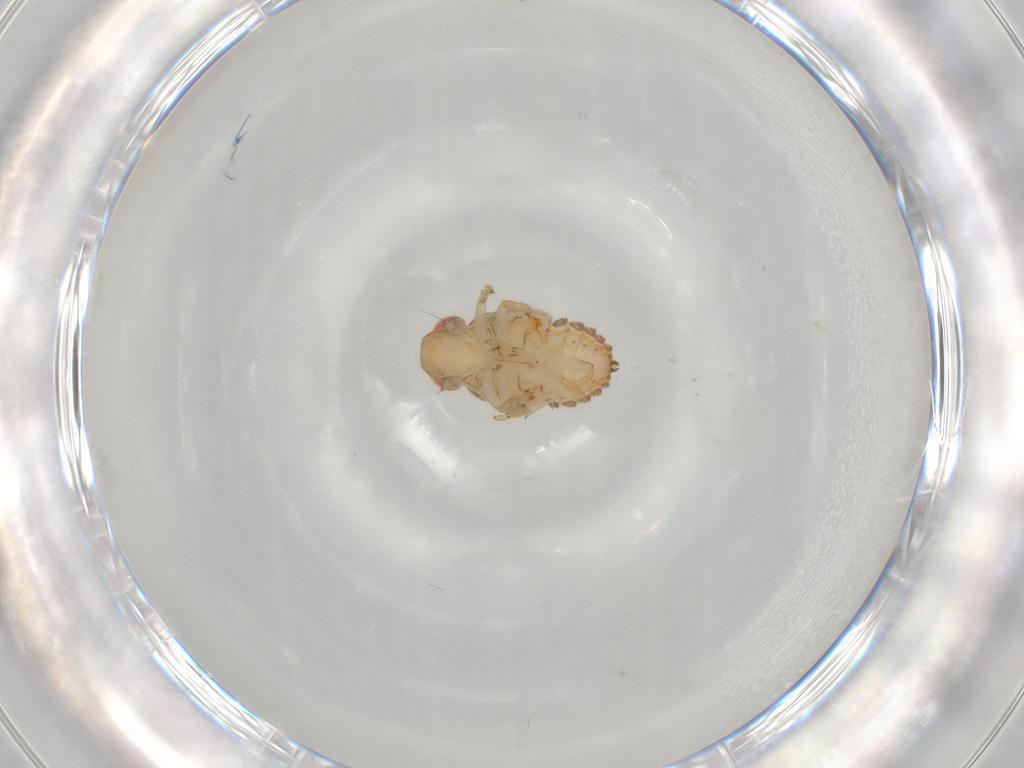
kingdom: Animalia
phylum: Arthropoda
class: Insecta
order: Hemiptera
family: Issidae
